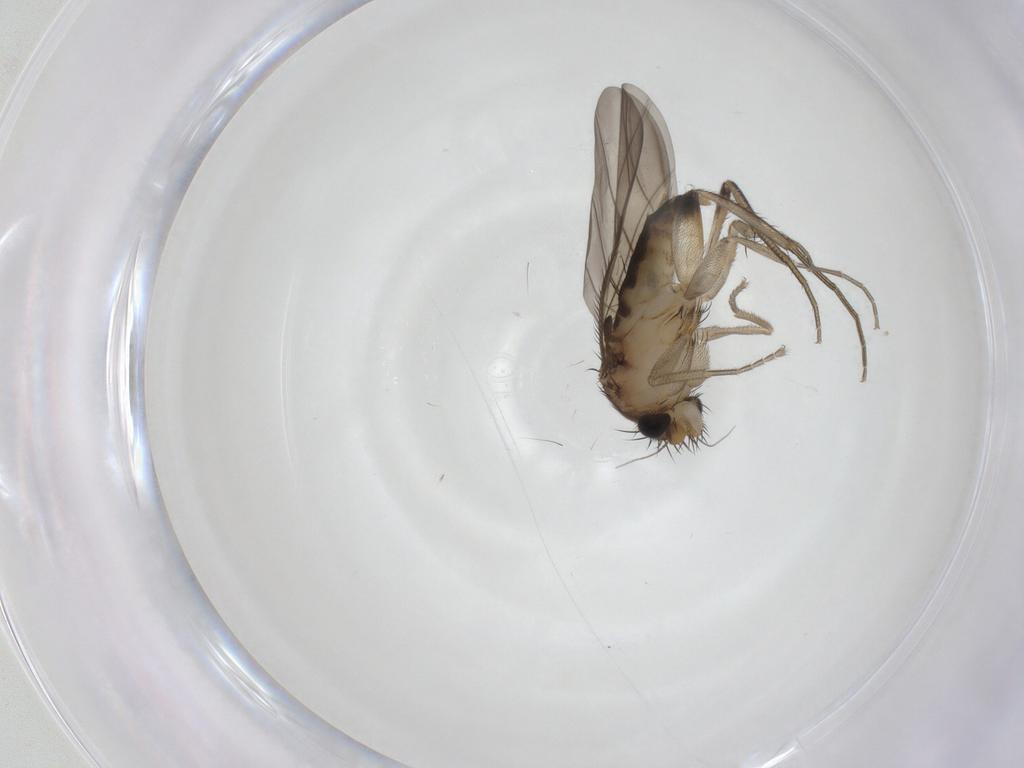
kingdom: Animalia
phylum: Arthropoda
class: Insecta
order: Diptera
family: Phoridae
